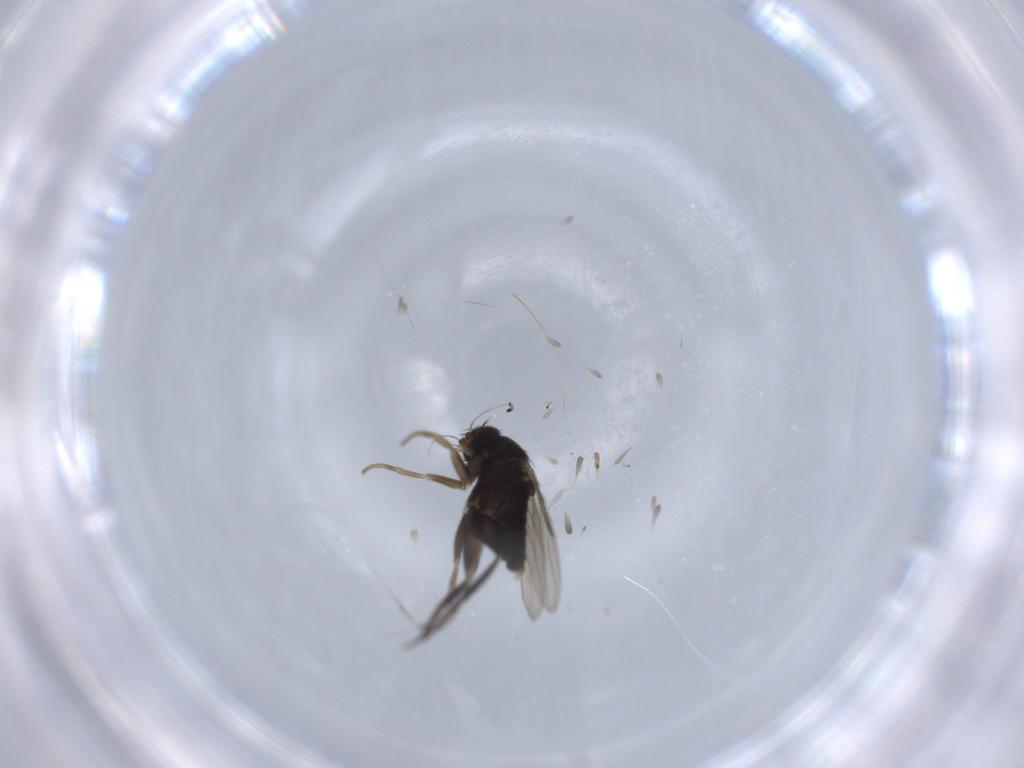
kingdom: Animalia
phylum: Arthropoda
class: Insecta
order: Diptera
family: Phoridae
